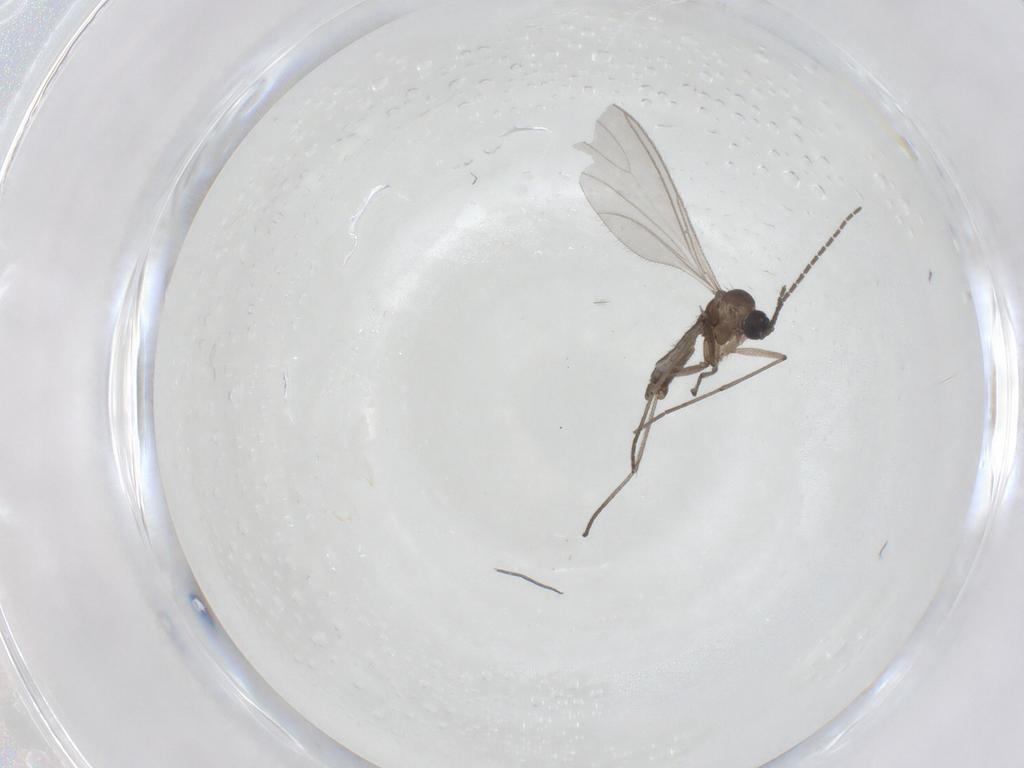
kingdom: Animalia
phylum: Arthropoda
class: Insecta
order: Diptera
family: Sciaridae
